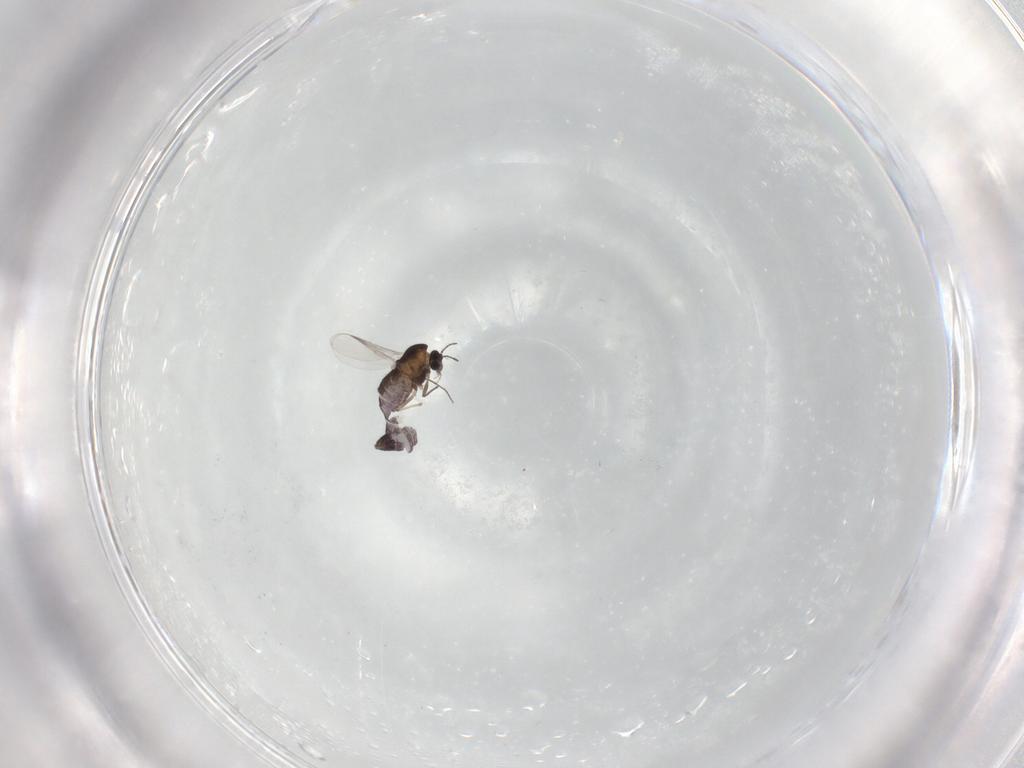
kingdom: Animalia
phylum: Arthropoda
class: Insecta
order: Diptera
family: Chironomidae
